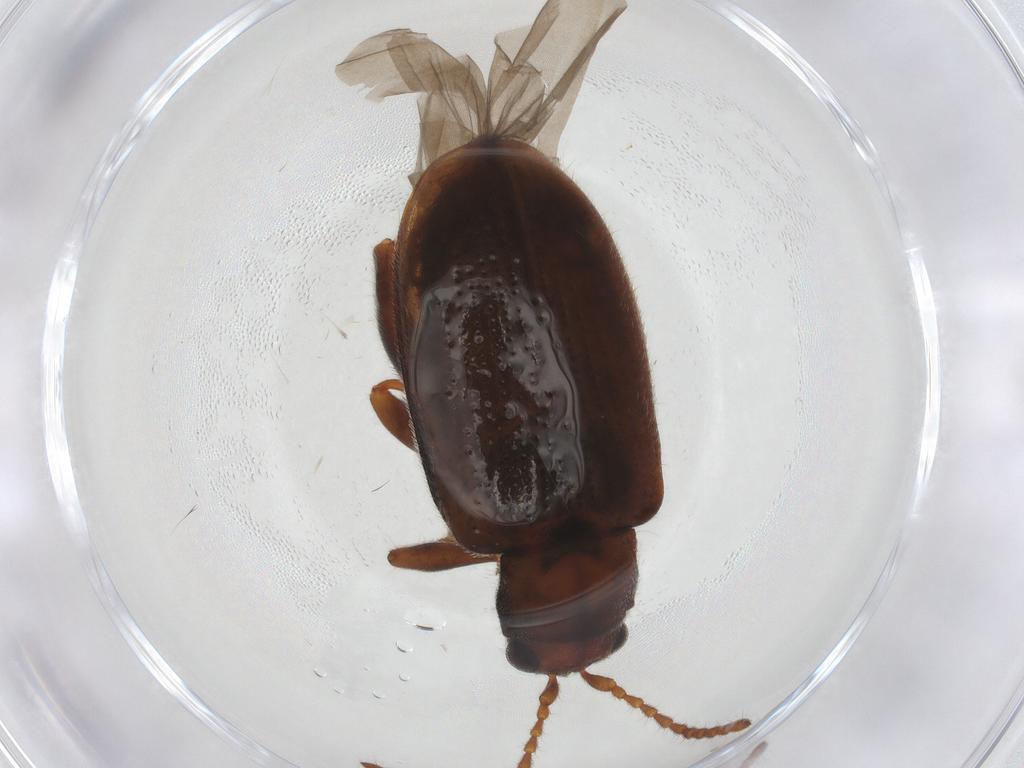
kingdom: Animalia
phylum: Arthropoda
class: Insecta
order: Coleoptera
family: Chrysomelidae
